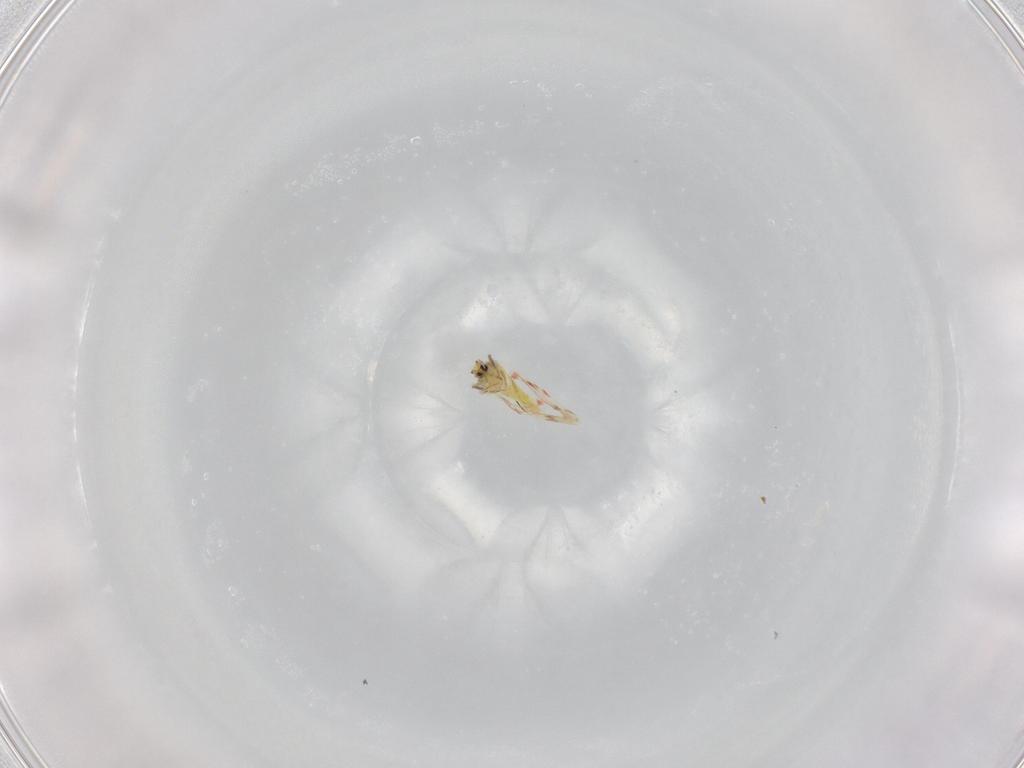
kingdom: Animalia
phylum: Arthropoda
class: Insecta
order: Hemiptera
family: Aleyrodidae
